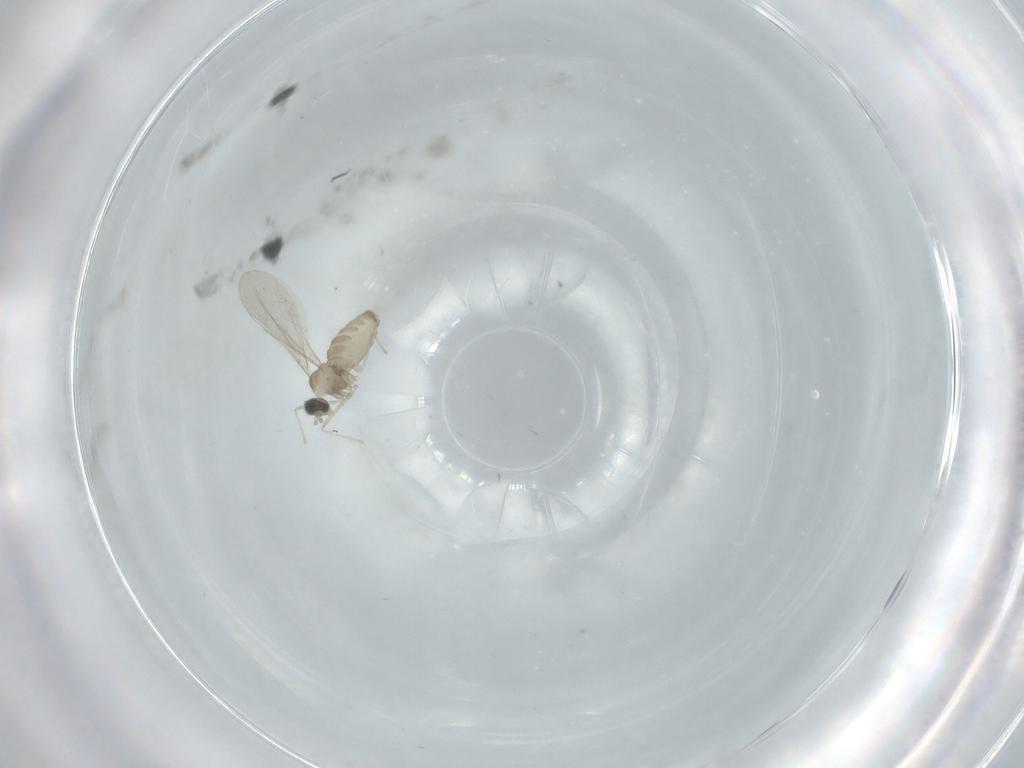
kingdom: Animalia
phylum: Arthropoda
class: Insecta
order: Diptera
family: Cecidomyiidae
